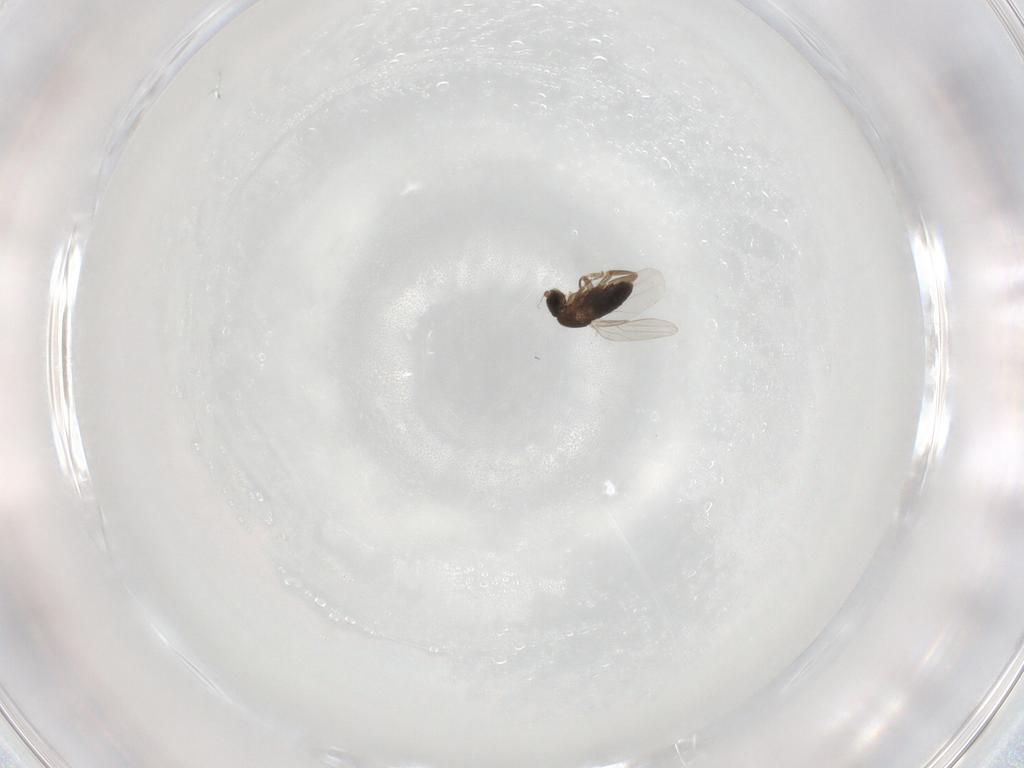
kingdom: Animalia
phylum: Arthropoda
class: Insecta
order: Diptera
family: Phoridae
